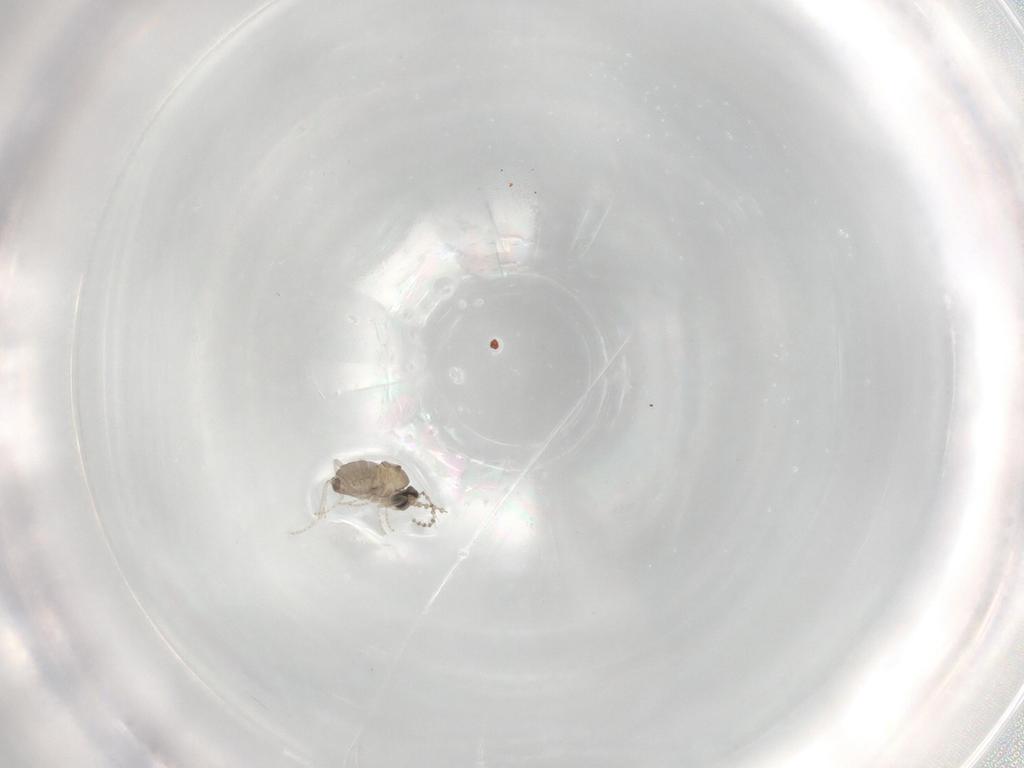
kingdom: Animalia
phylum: Arthropoda
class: Insecta
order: Diptera
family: Cecidomyiidae
